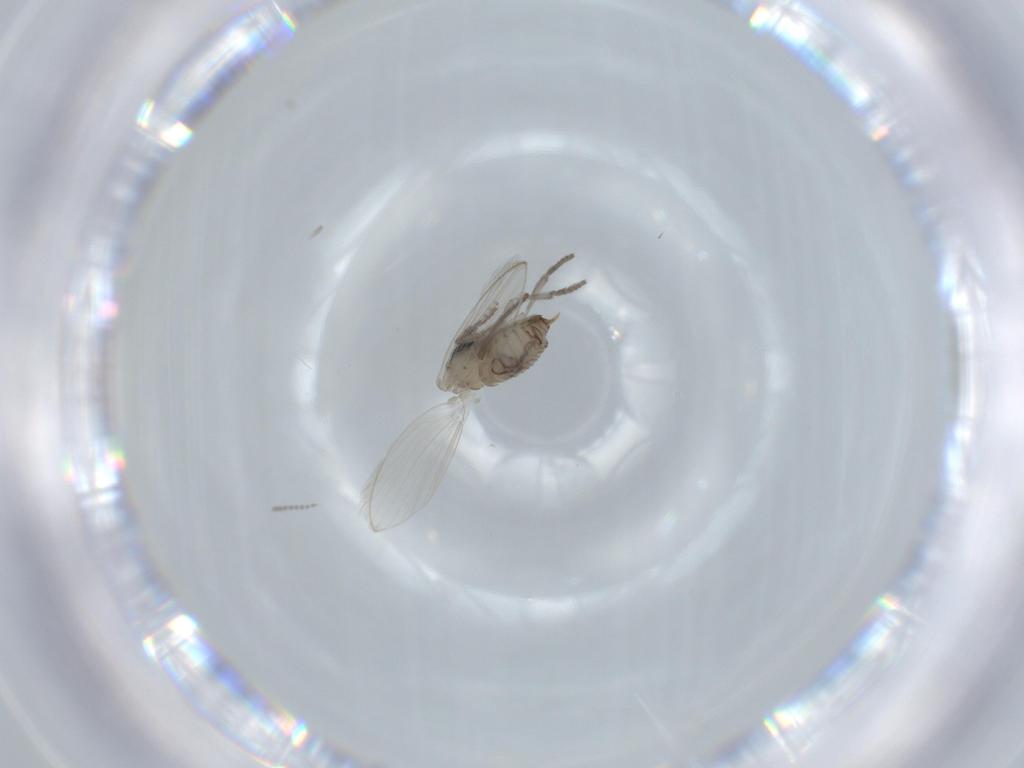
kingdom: Animalia
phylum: Arthropoda
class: Insecta
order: Diptera
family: Psychodidae
